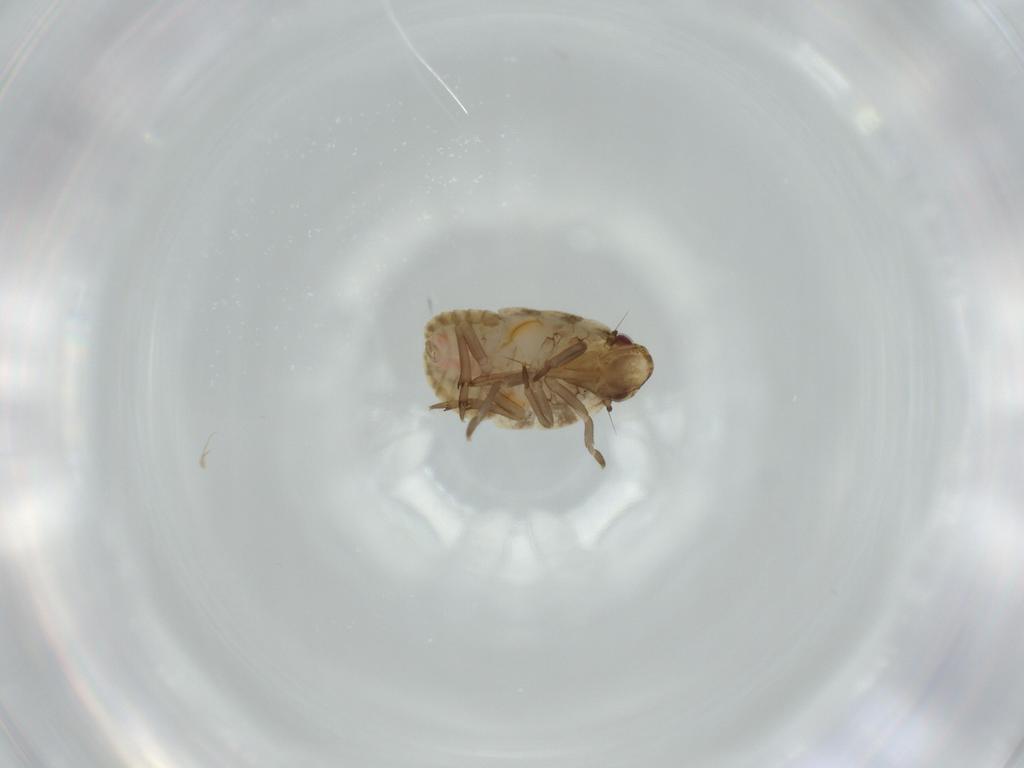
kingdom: Animalia
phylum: Arthropoda
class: Insecta
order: Hemiptera
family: Flatidae
